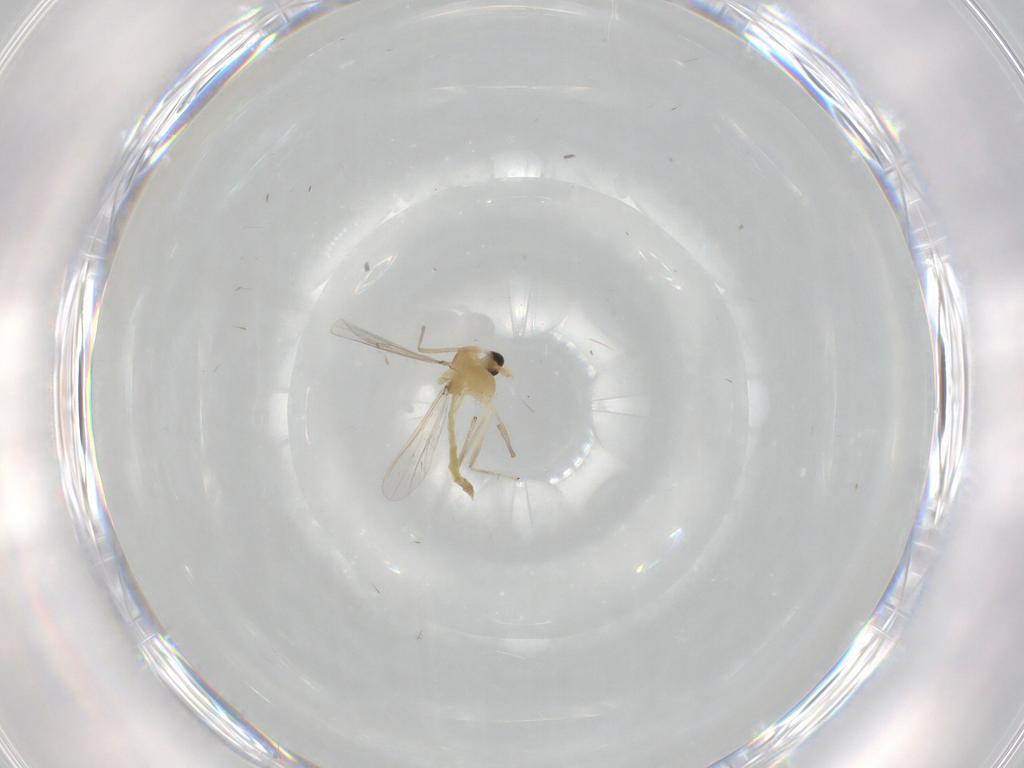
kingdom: Animalia
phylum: Arthropoda
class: Insecta
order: Diptera
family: Chironomidae
